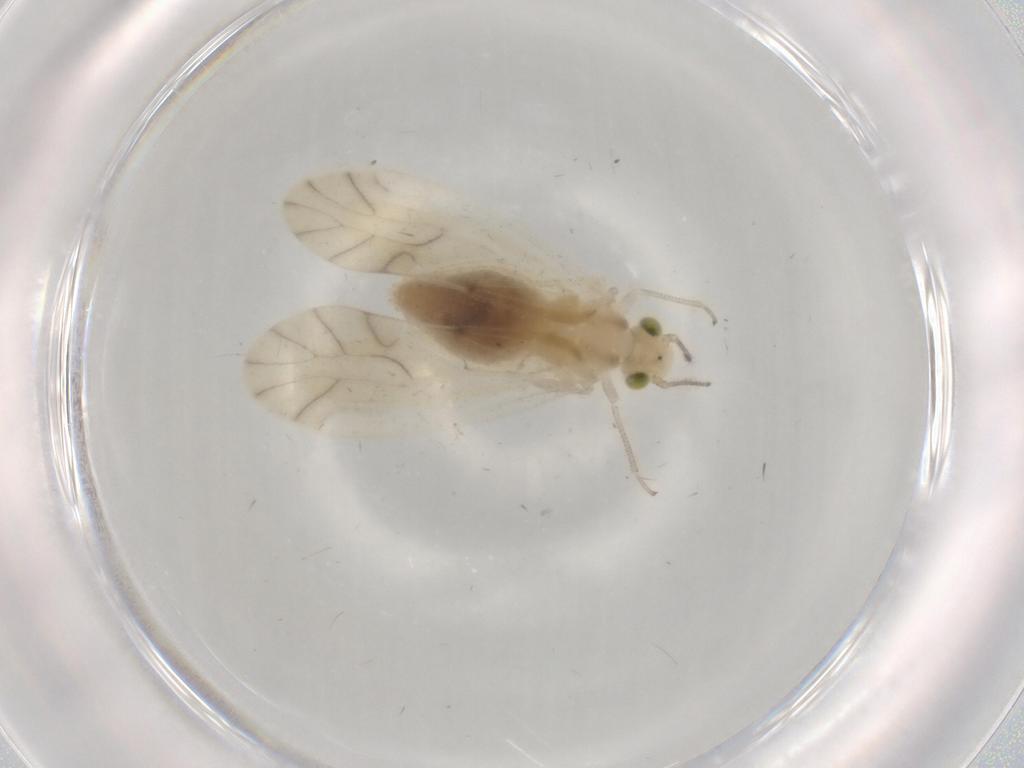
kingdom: Animalia
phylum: Arthropoda
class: Insecta
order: Psocodea
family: Caeciliusidae
